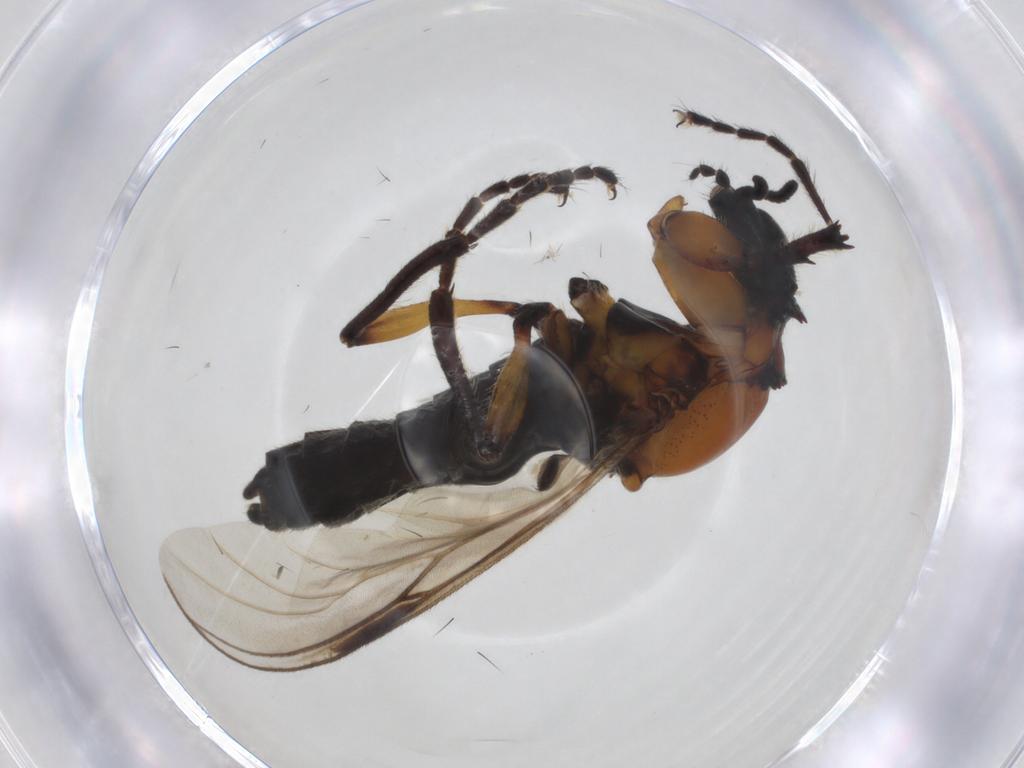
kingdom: Animalia
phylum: Arthropoda
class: Insecta
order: Diptera
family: Bibionidae
